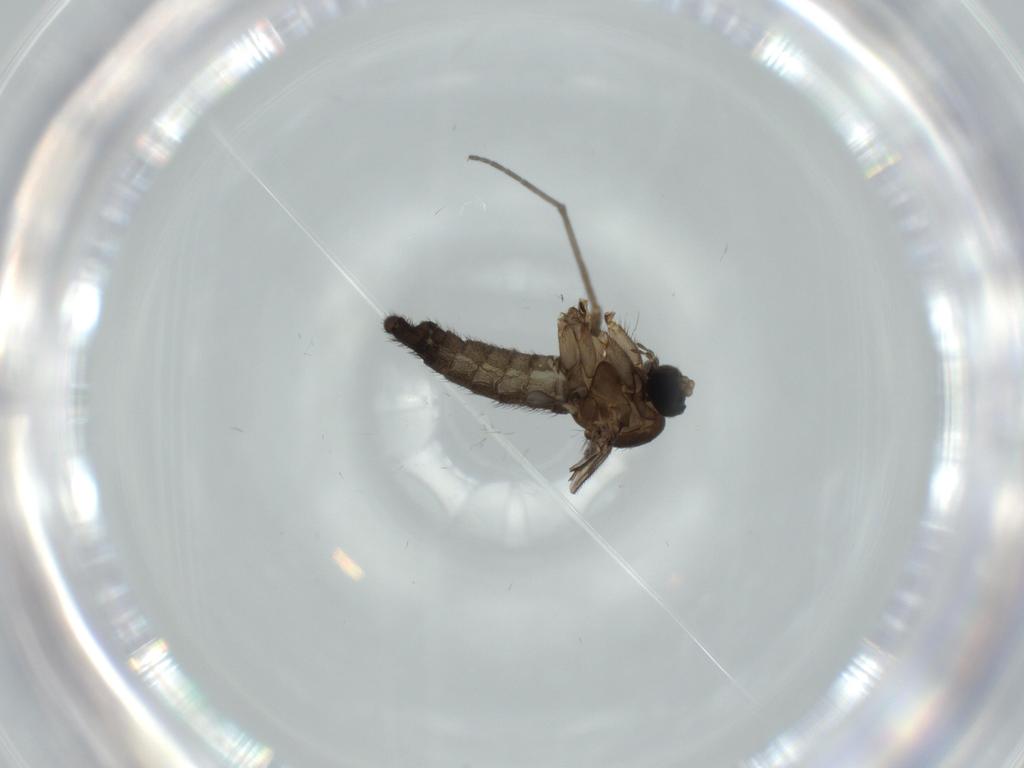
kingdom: Animalia
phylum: Arthropoda
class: Insecta
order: Diptera
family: Sciaridae
